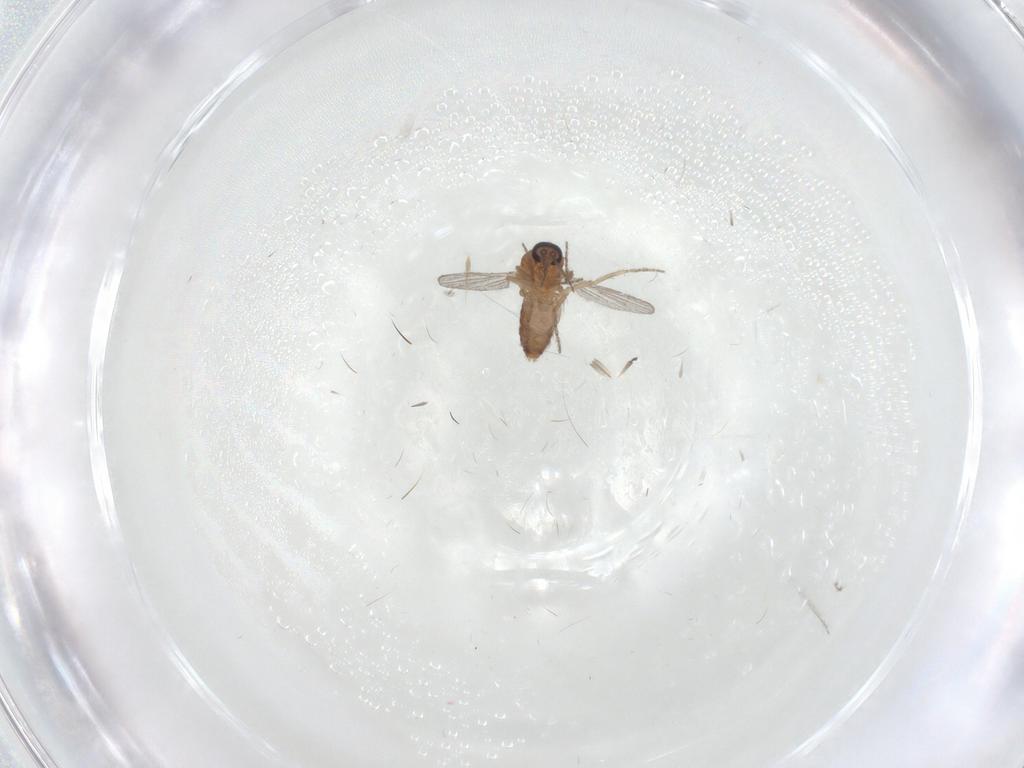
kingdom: Animalia
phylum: Arthropoda
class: Insecta
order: Diptera
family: Ceratopogonidae
